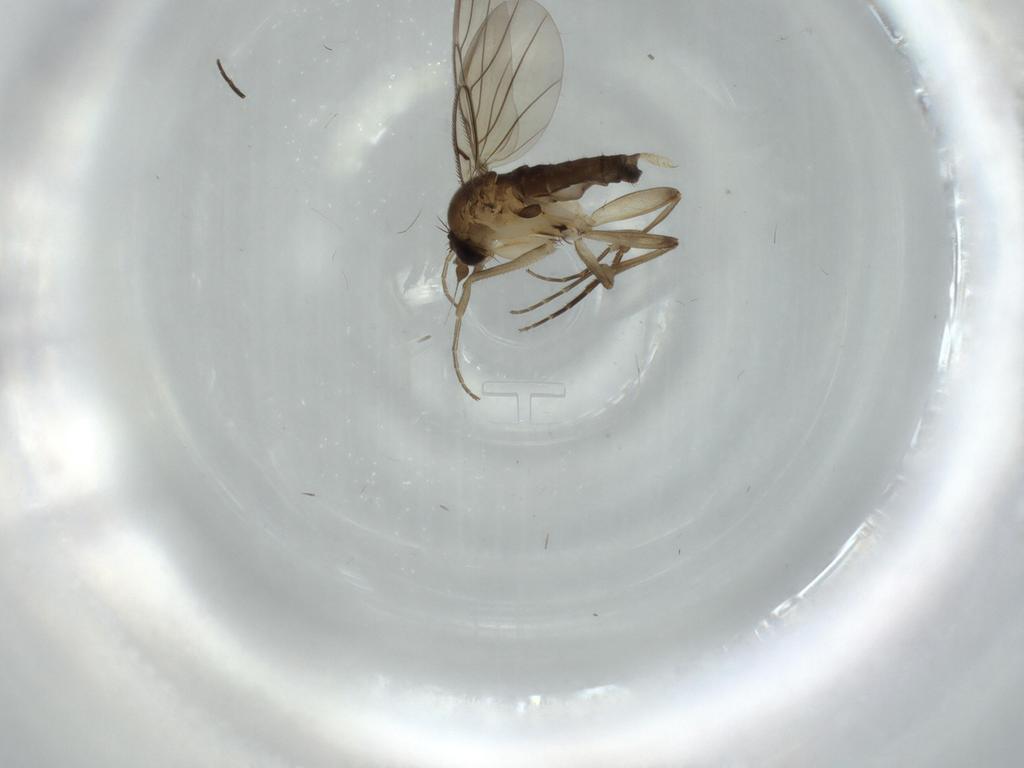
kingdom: Animalia
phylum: Arthropoda
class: Insecta
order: Diptera
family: Phoridae
